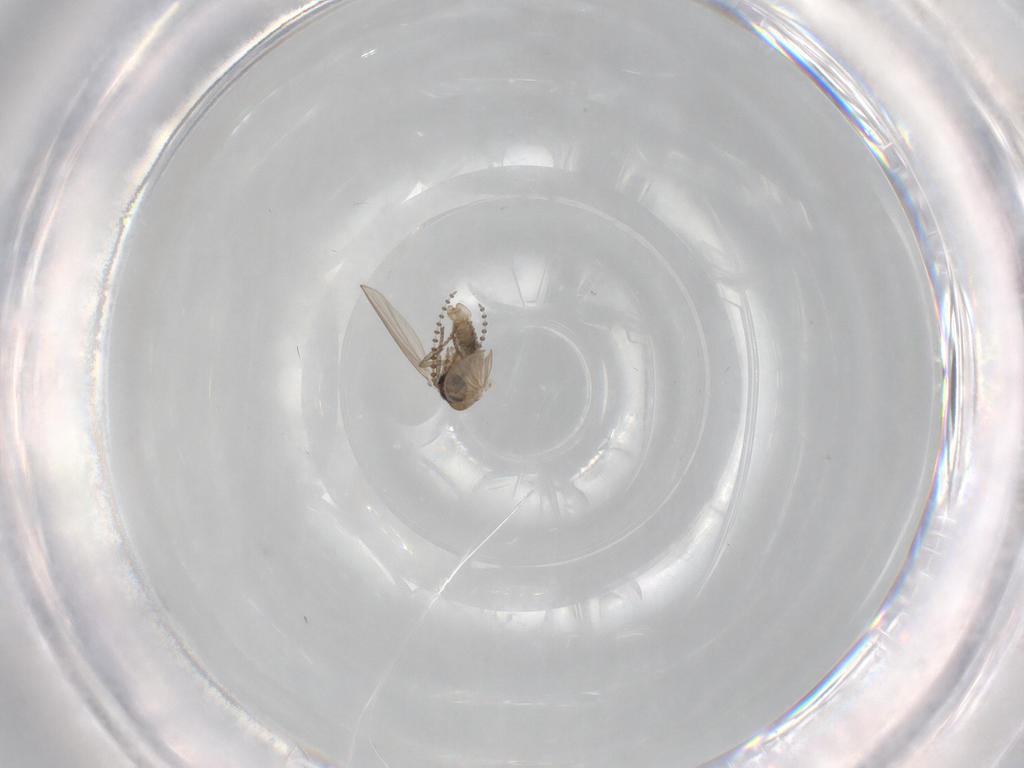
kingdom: Animalia
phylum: Arthropoda
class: Insecta
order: Diptera
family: Psychodidae
